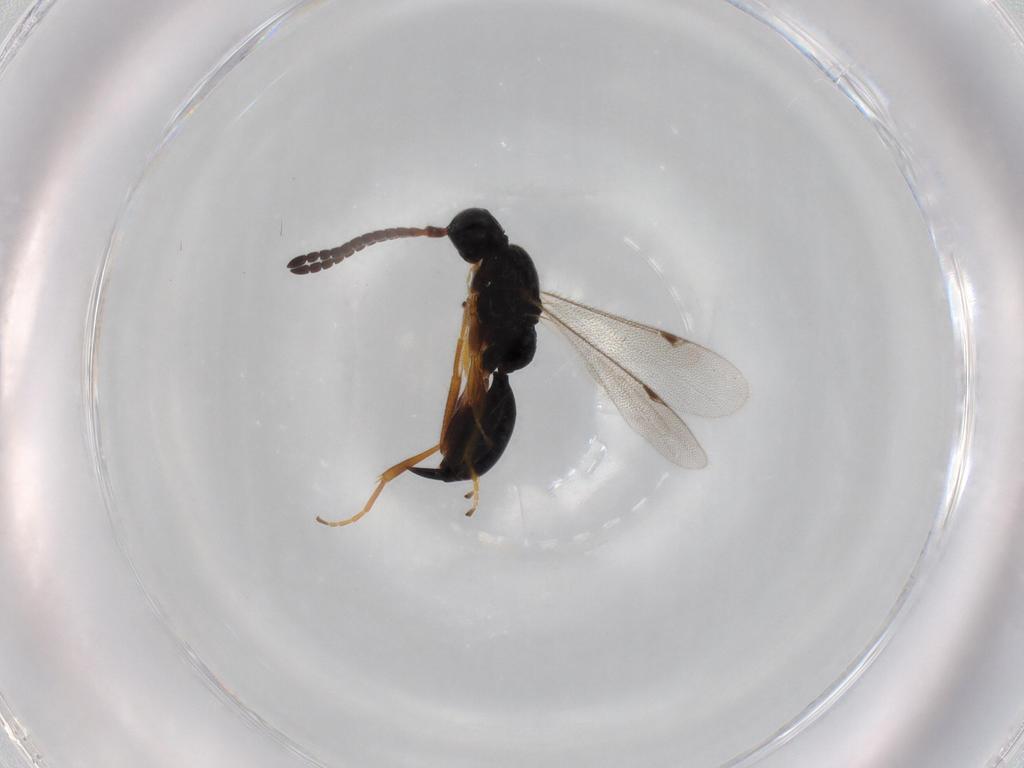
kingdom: Animalia
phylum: Arthropoda
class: Insecta
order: Hymenoptera
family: Proctotrupidae
